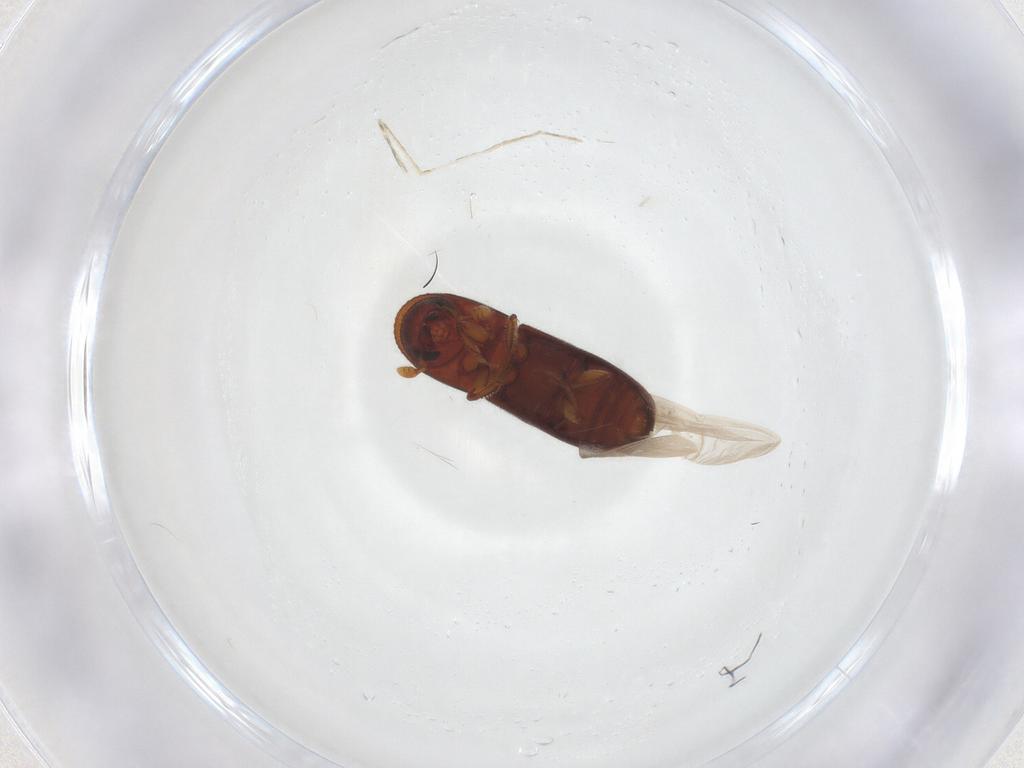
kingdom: Animalia
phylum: Arthropoda
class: Insecta
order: Coleoptera
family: Curculionidae
